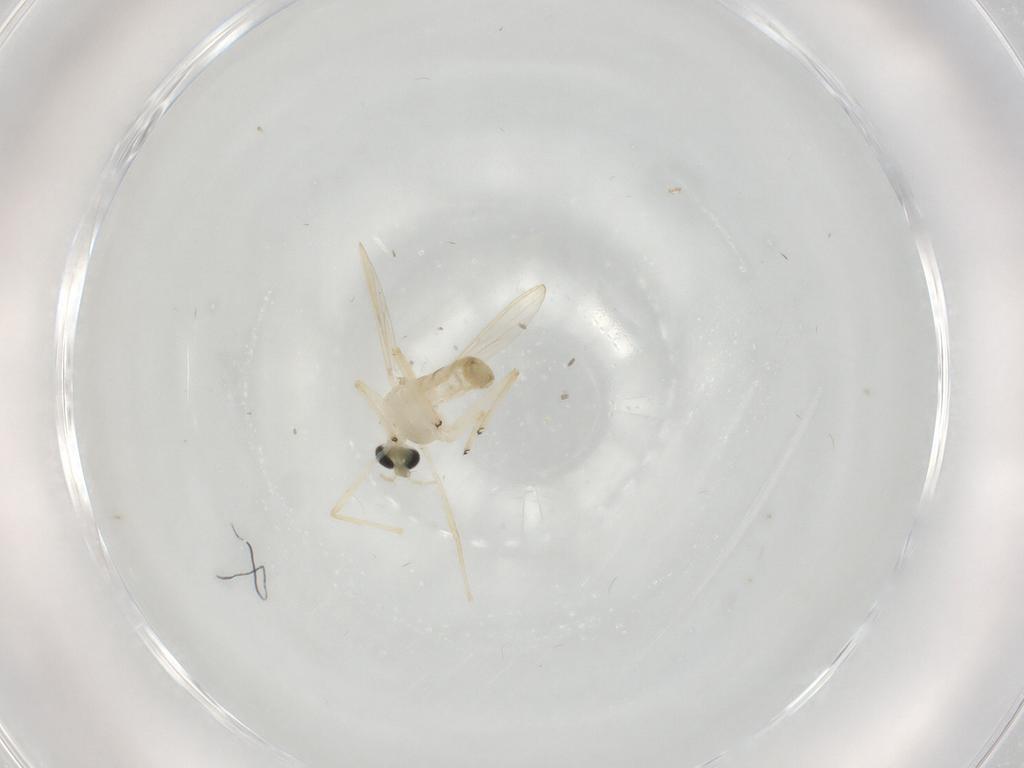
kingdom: Animalia
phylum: Arthropoda
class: Insecta
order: Diptera
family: Chironomidae
